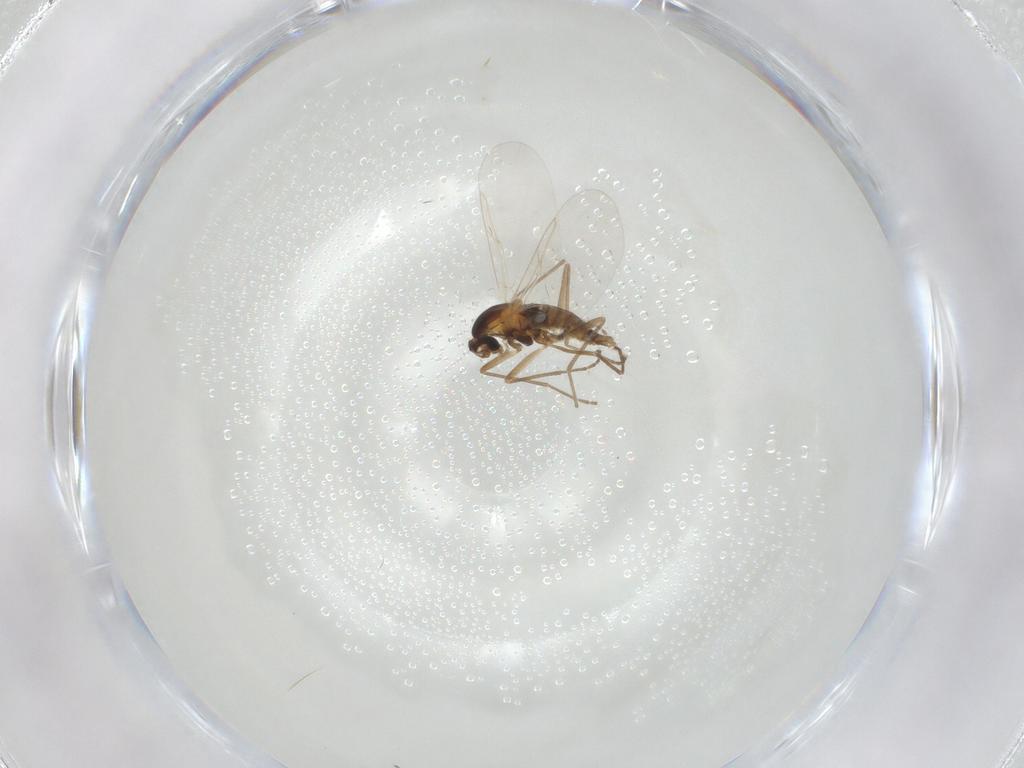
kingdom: Animalia
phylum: Arthropoda
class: Insecta
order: Diptera
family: Cecidomyiidae
